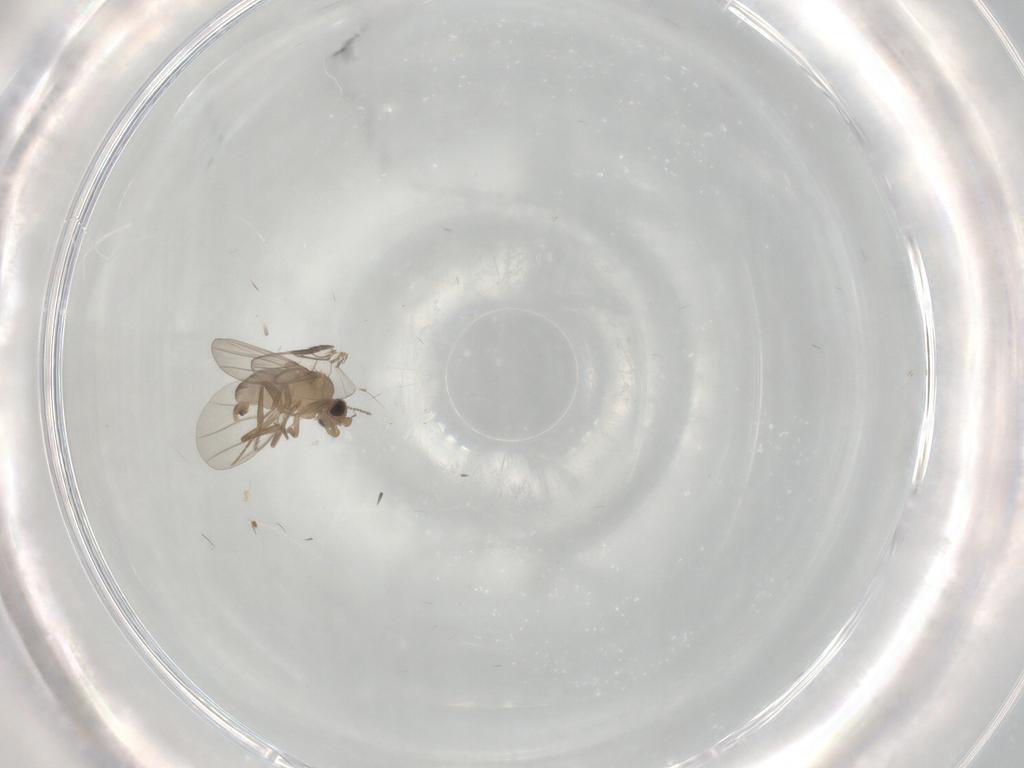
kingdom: Animalia
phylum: Arthropoda
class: Insecta
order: Diptera
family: Cecidomyiidae
